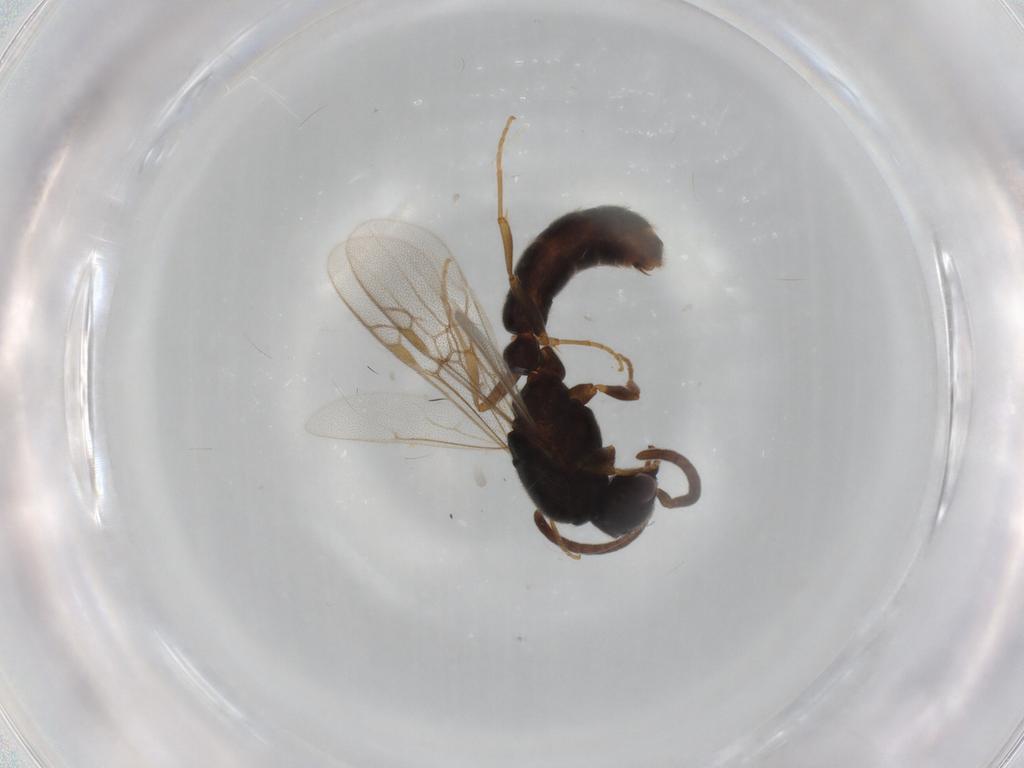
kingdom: Animalia
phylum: Arthropoda
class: Insecta
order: Hymenoptera
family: Formicidae
